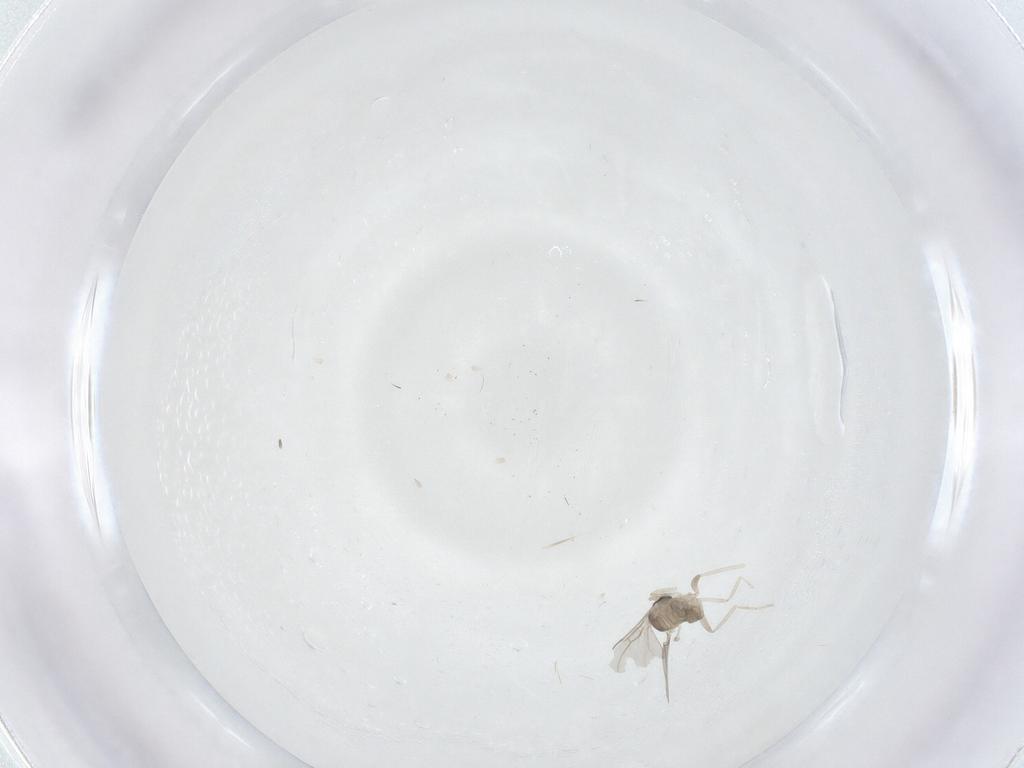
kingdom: Animalia
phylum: Arthropoda
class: Insecta
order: Diptera
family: Cecidomyiidae
